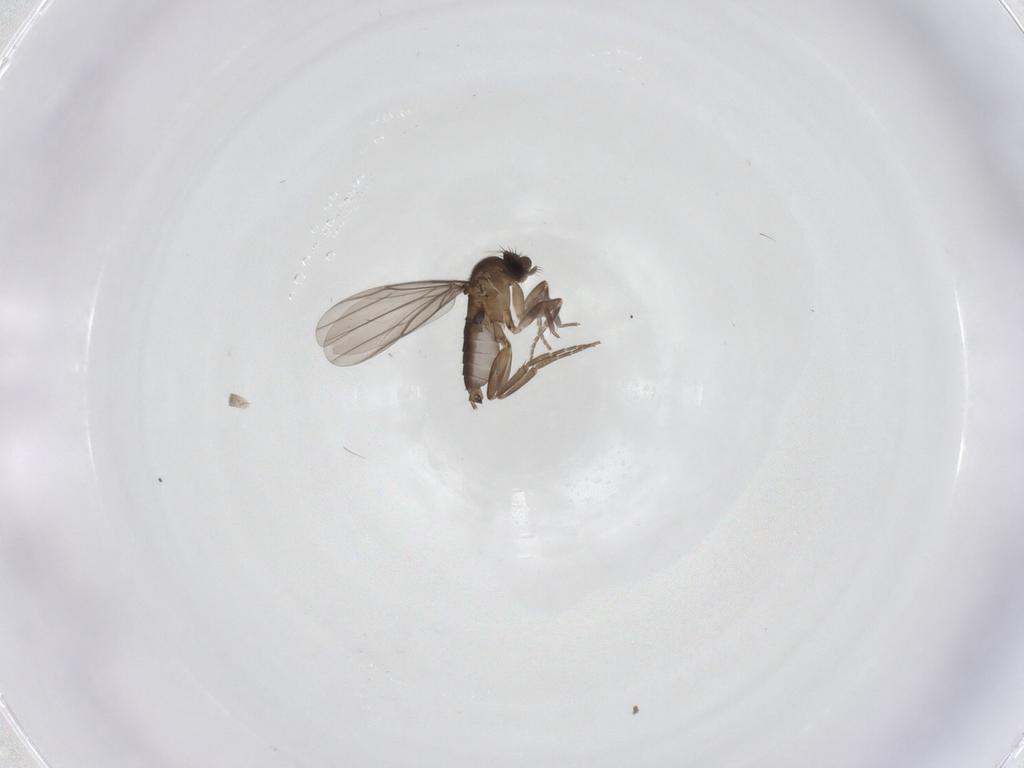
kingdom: Animalia
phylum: Arthropoda
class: Insecta
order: Diptera
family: Phoridae
